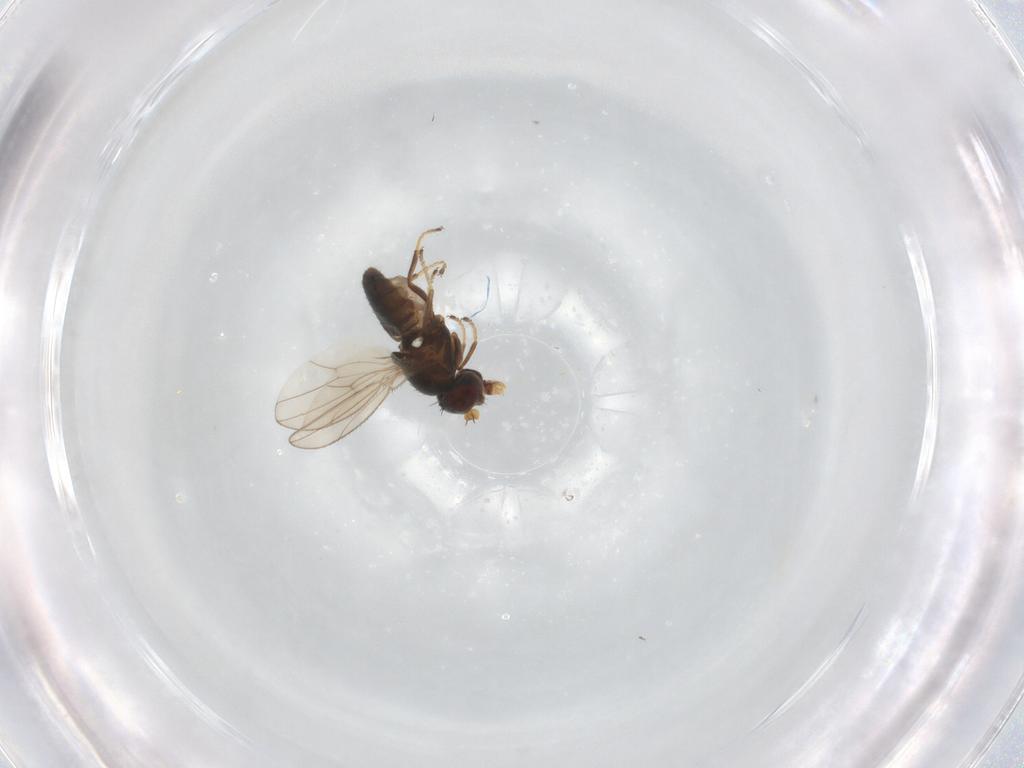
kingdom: Animalia
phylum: Arthropoda
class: Insecta
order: Diptera
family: Ephydridae
